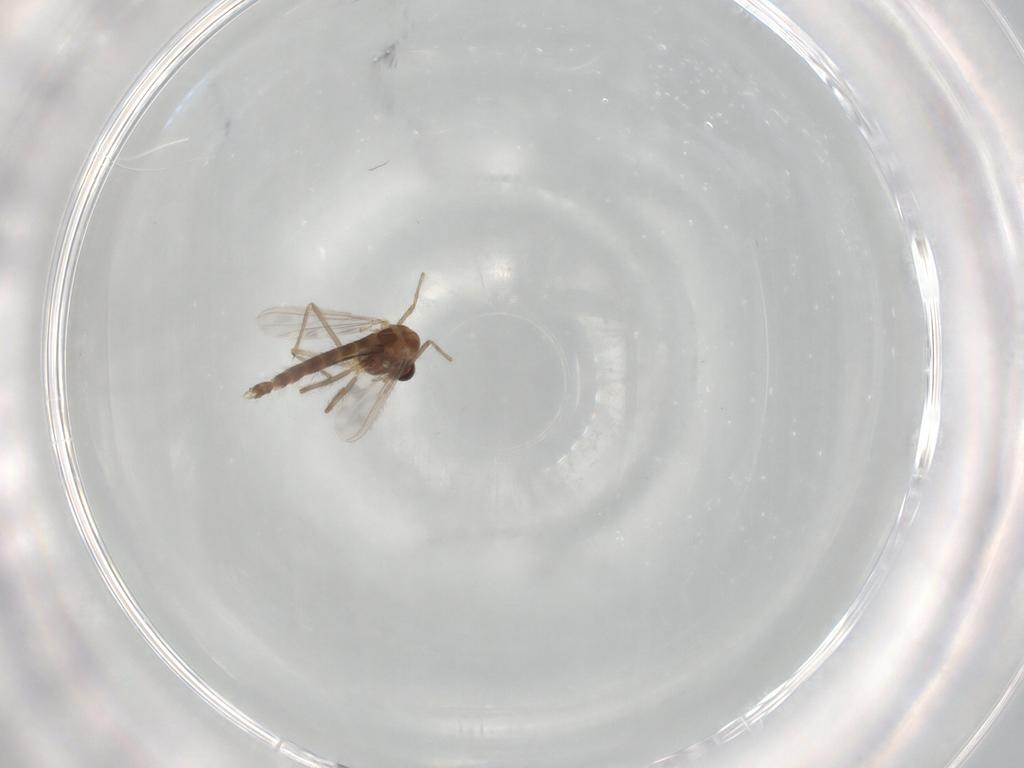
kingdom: Animalia
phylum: Arthropoda
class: Insecta
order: Diptera
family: Chironomidae
